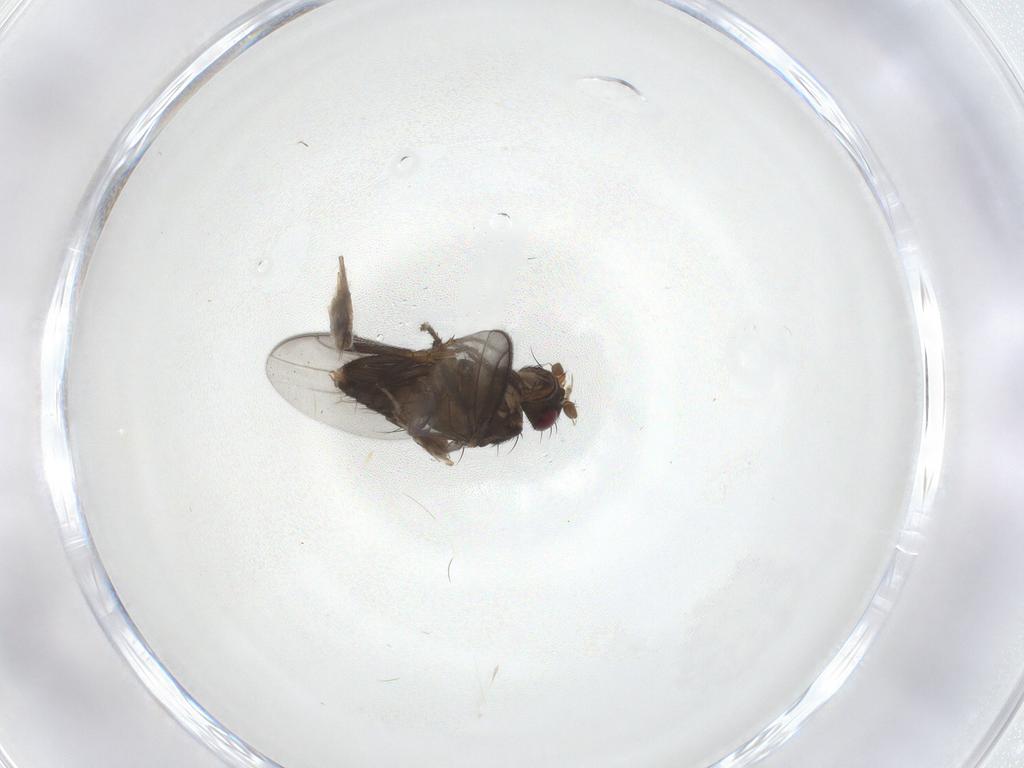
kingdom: Animalia
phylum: Arthropoda
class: Insecta
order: Diptera
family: Sphaeroceridae
